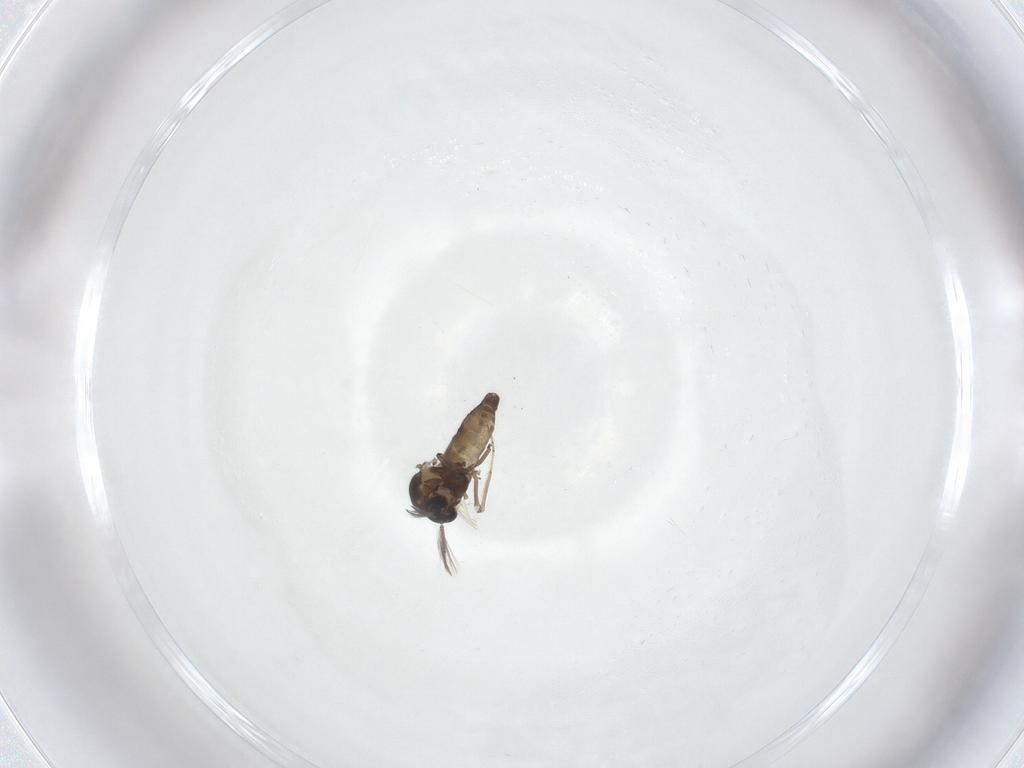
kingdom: Animalia
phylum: Arthropoda
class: Insecta
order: Diptera
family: Ceratopogonidae
